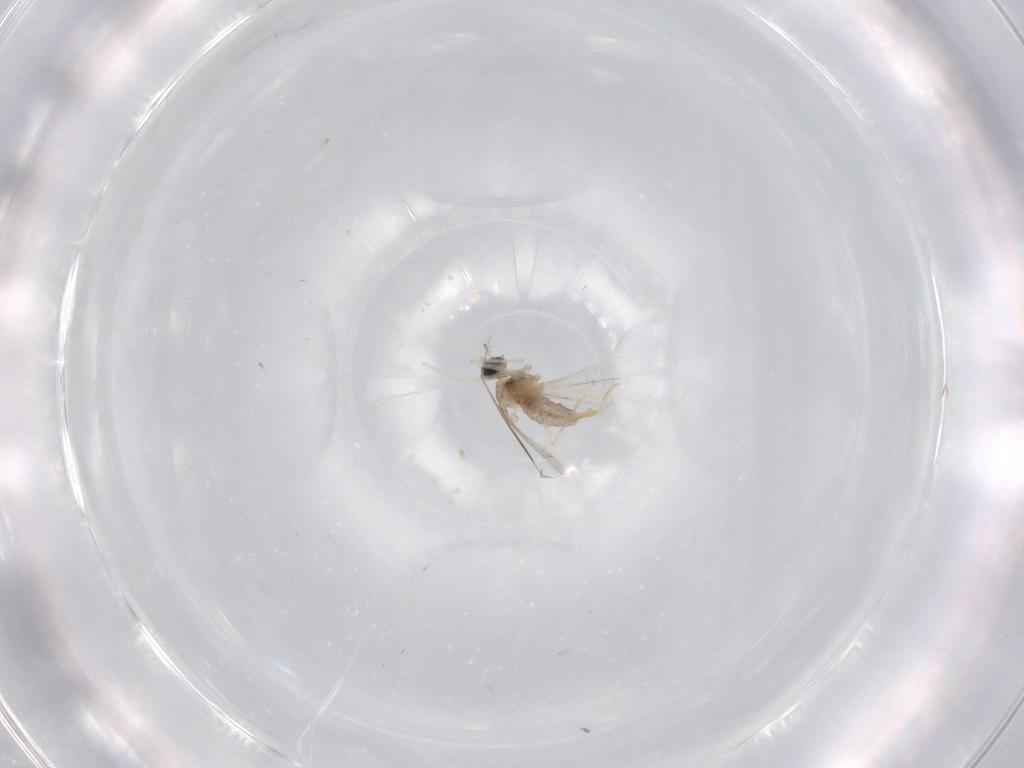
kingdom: Animalia
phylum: Arthropoda
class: Insecta
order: Diptera
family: Chironomidae
